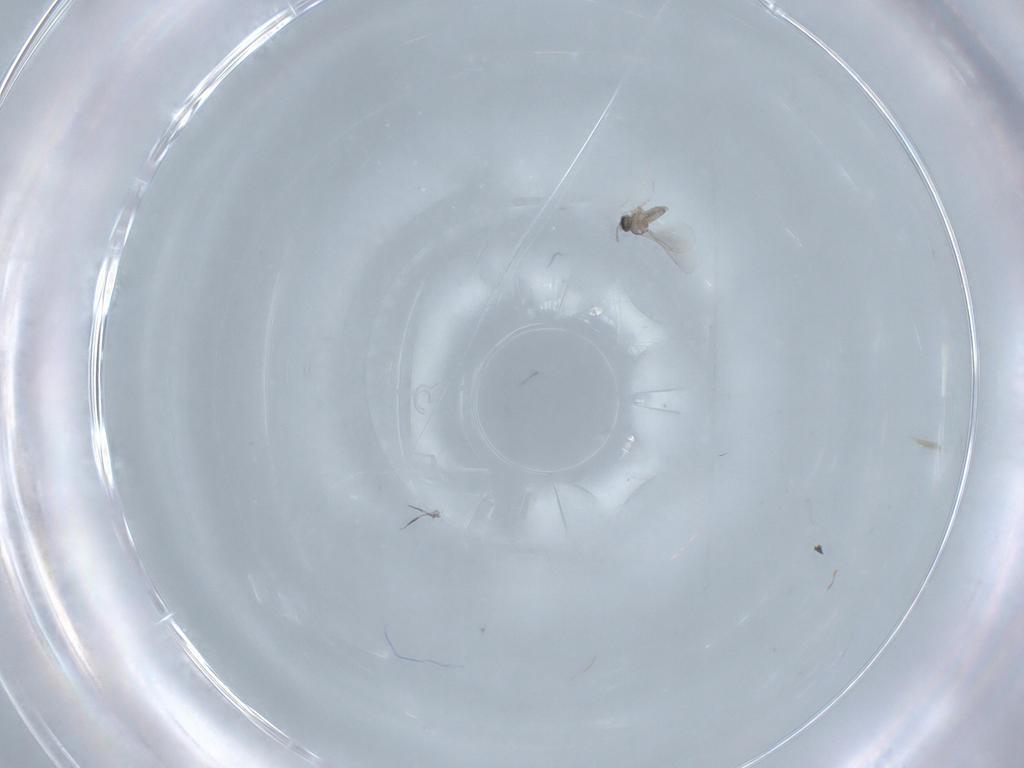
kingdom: Animalia
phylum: Arthropoda
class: Insecta
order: Diptera
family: Cecidomyiidae
